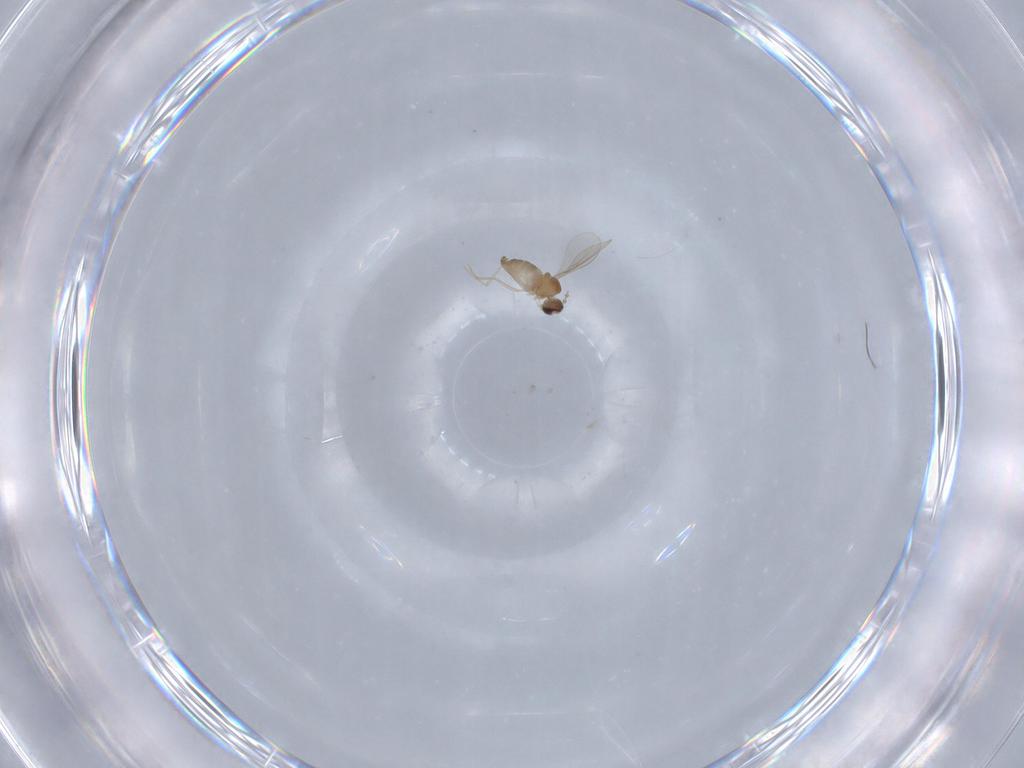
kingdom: Animalia
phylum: Arthropoda
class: Insecta
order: Diptera
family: Cecidomyiidae
